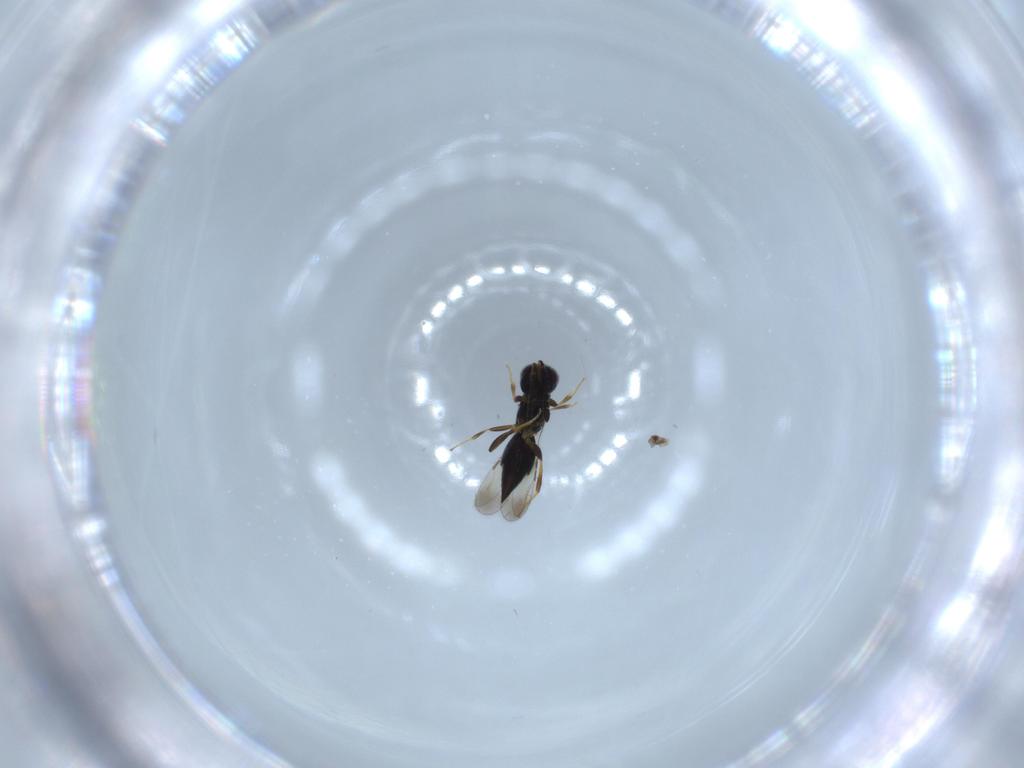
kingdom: Animalia
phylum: Arthropoda
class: Insecta
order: Hymenoptera
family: Ceraphronidae
